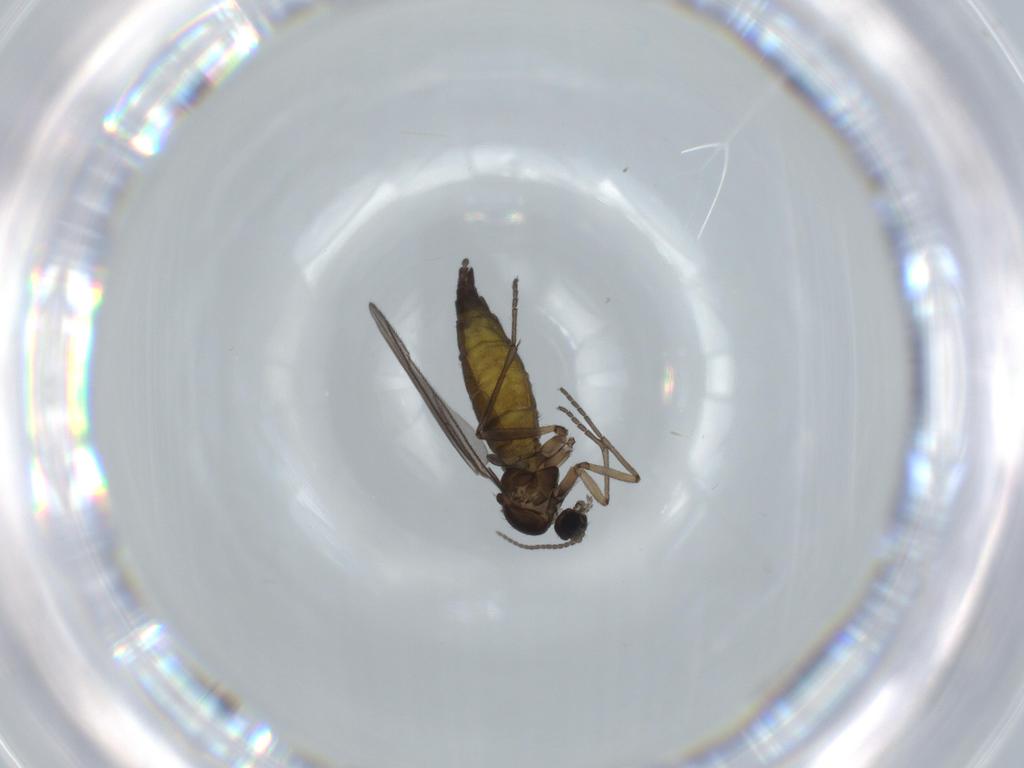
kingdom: Animalia
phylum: Arthropoda
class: Insecta
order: Diptera
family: Sciaridae
